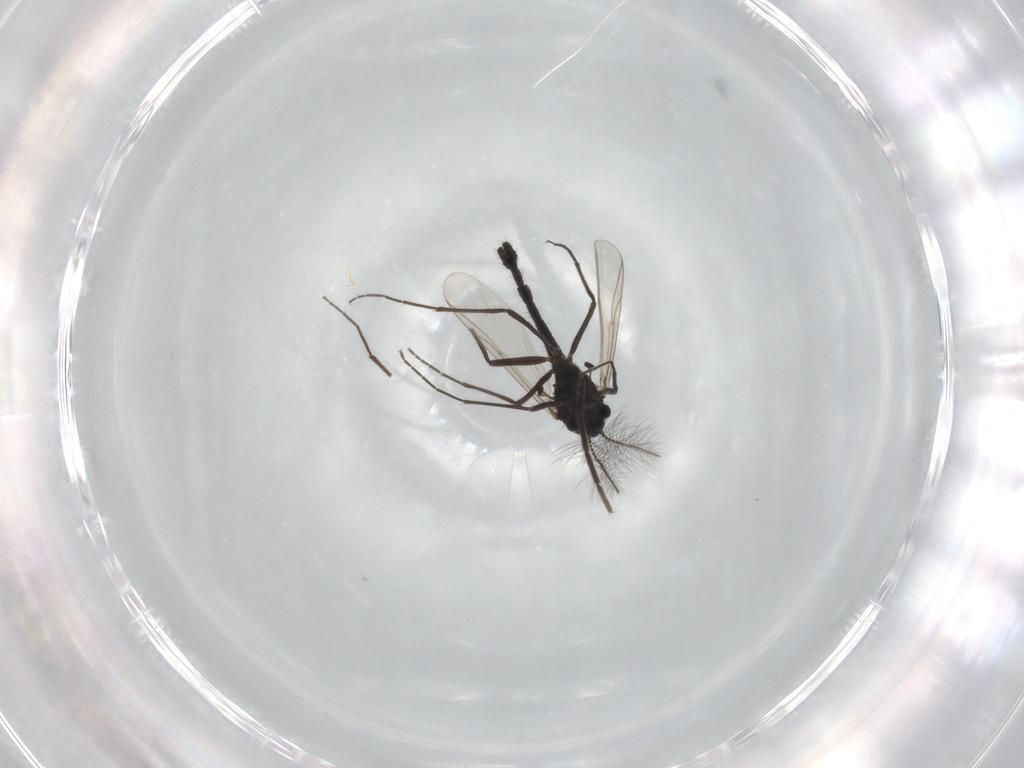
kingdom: Animalia
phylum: Arthropoda
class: Insecta
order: Diptera
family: Chironomidae
